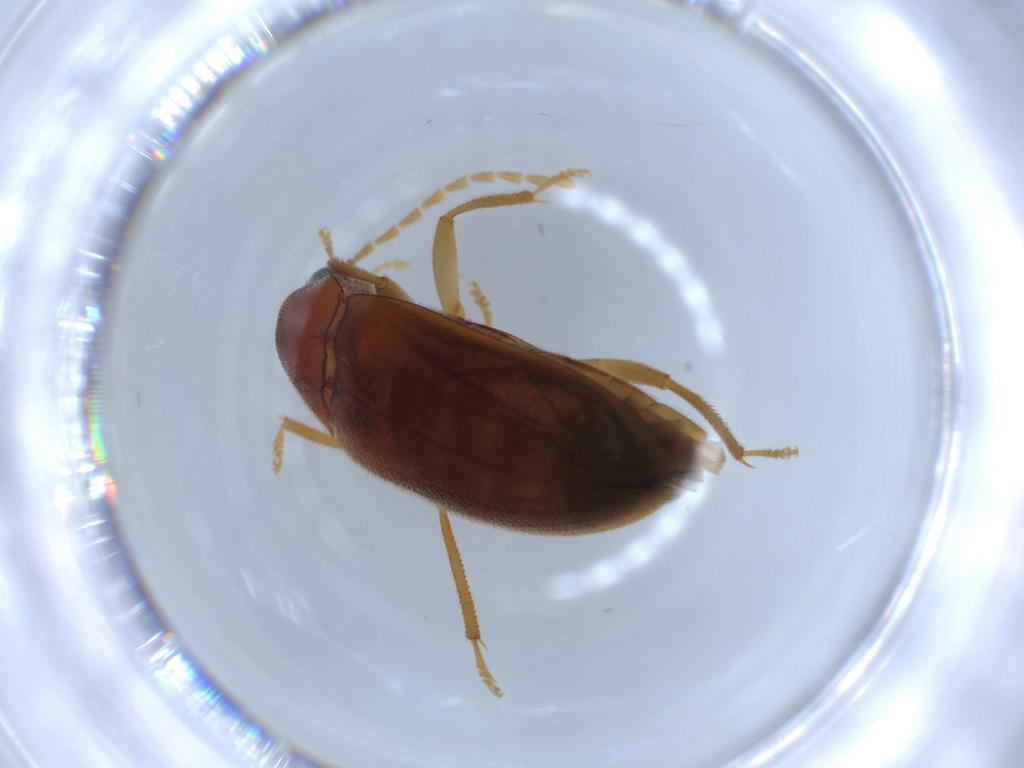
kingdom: Animalia
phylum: Arthropoda
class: Insecta
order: Coleoptera
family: Ptilodactylidae
